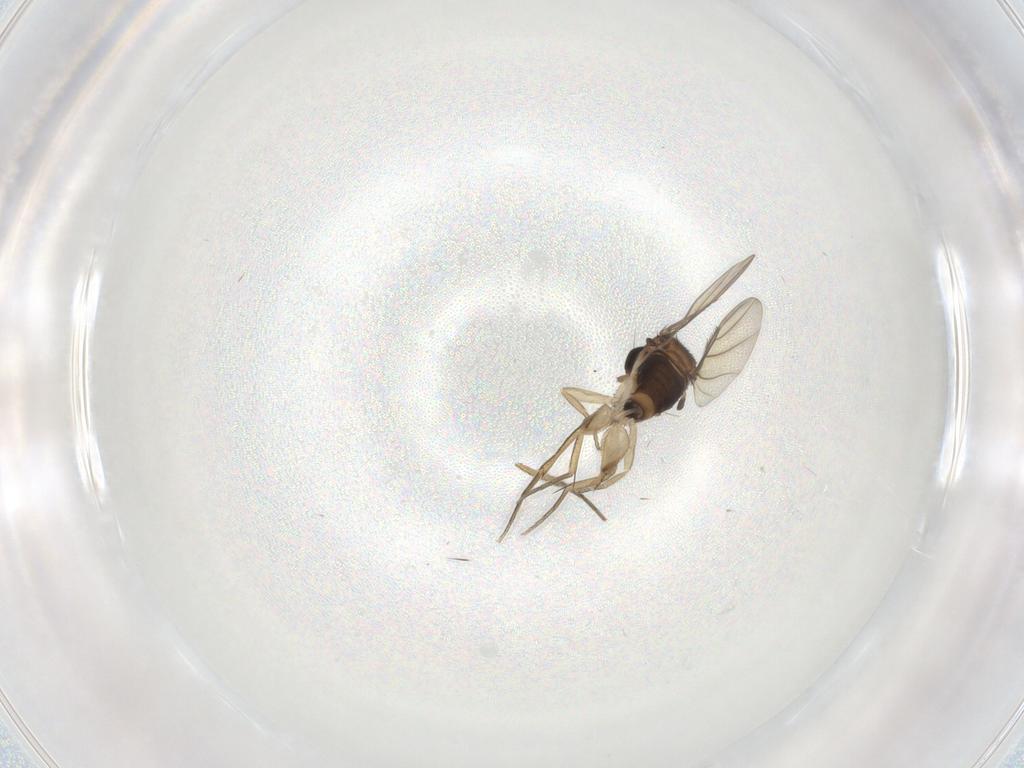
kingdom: Animalia
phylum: Arthropoda
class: Insecta
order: Diptera
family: Cecidomyiidae
